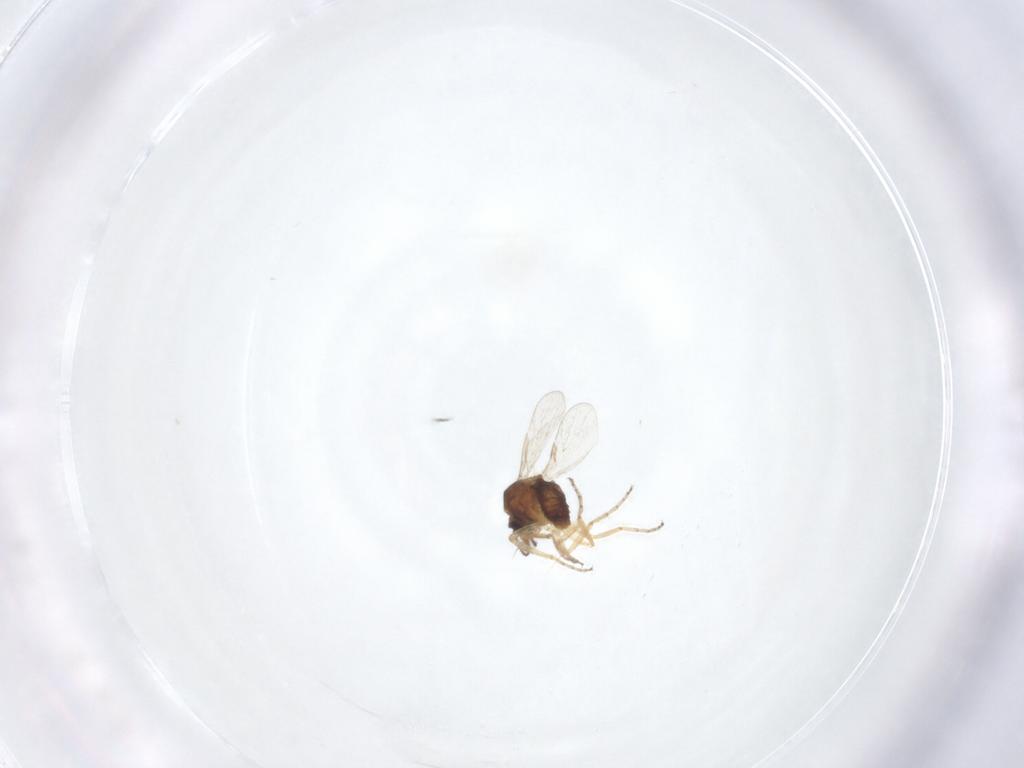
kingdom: Animalia
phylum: Arthropoda
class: Insecta
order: Diptera
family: Ceratopogonidae
